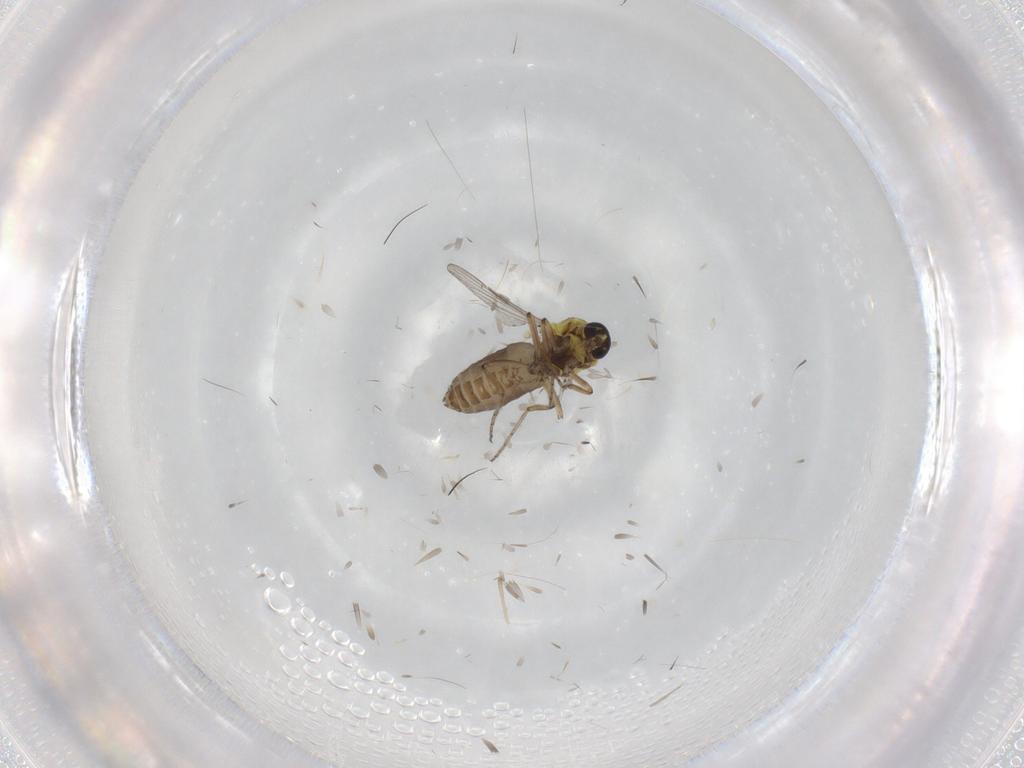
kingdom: Animalia
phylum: Arthropoda
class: Insecta
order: Diptera
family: Ceratopogonidae
